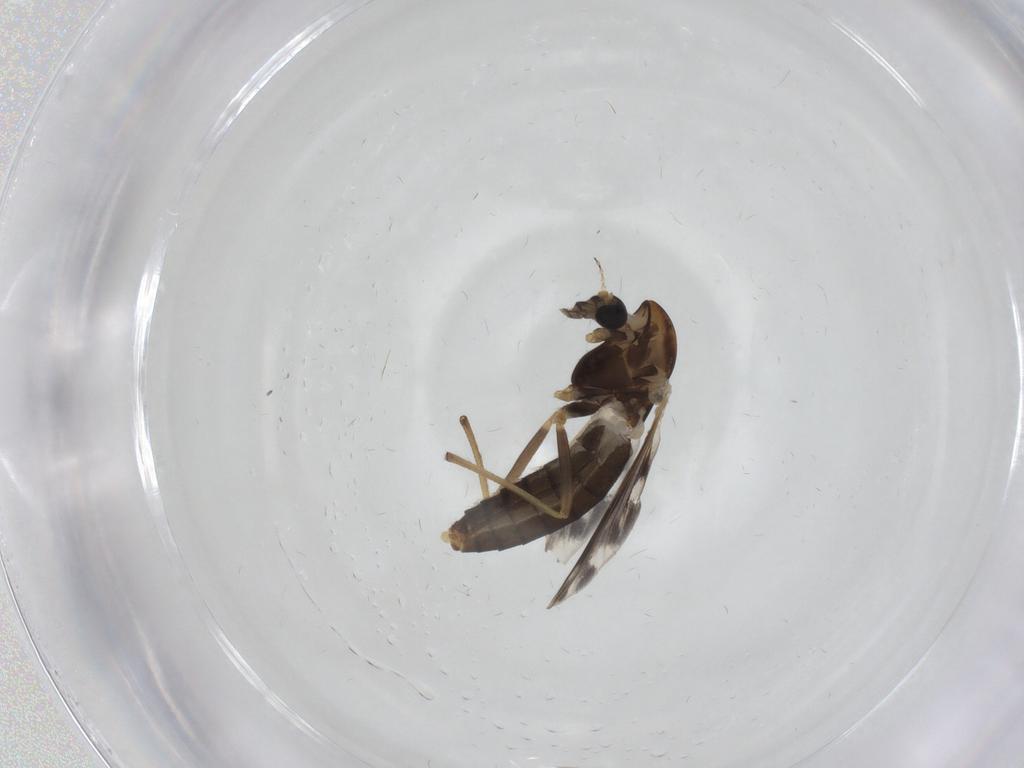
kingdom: Animalia
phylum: Arthropoda
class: Insecta
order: Diptera
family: Chironomidae
